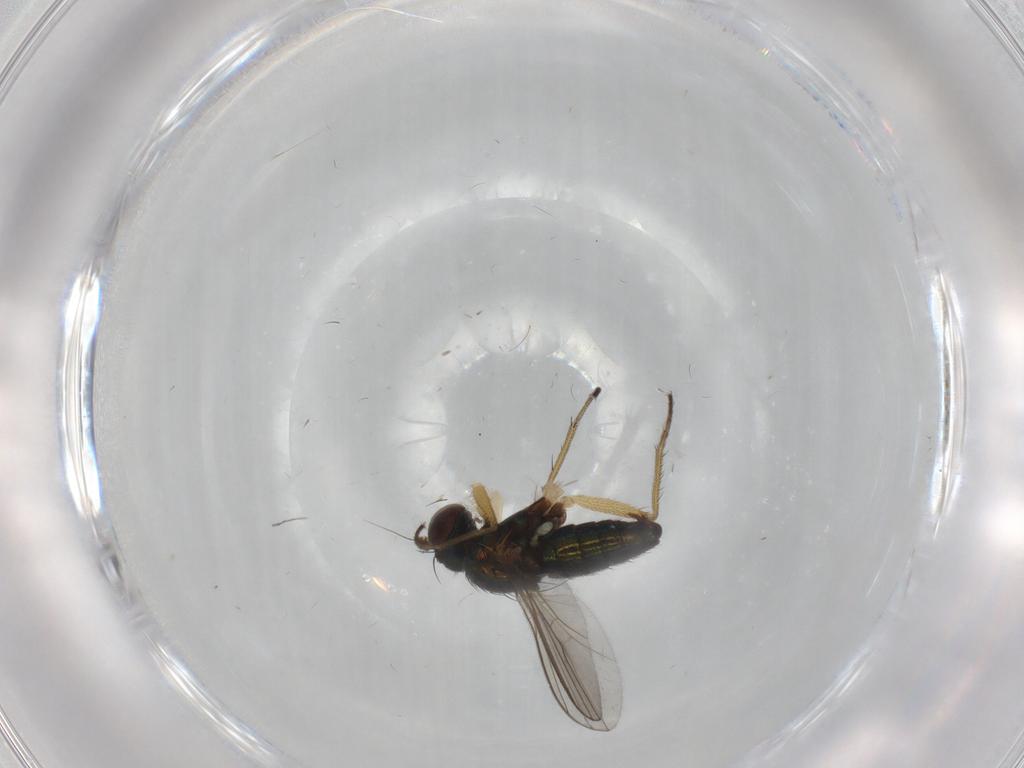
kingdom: Animalia
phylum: Arthropoda
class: Insecta
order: Diptera
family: Dolichopodidae
